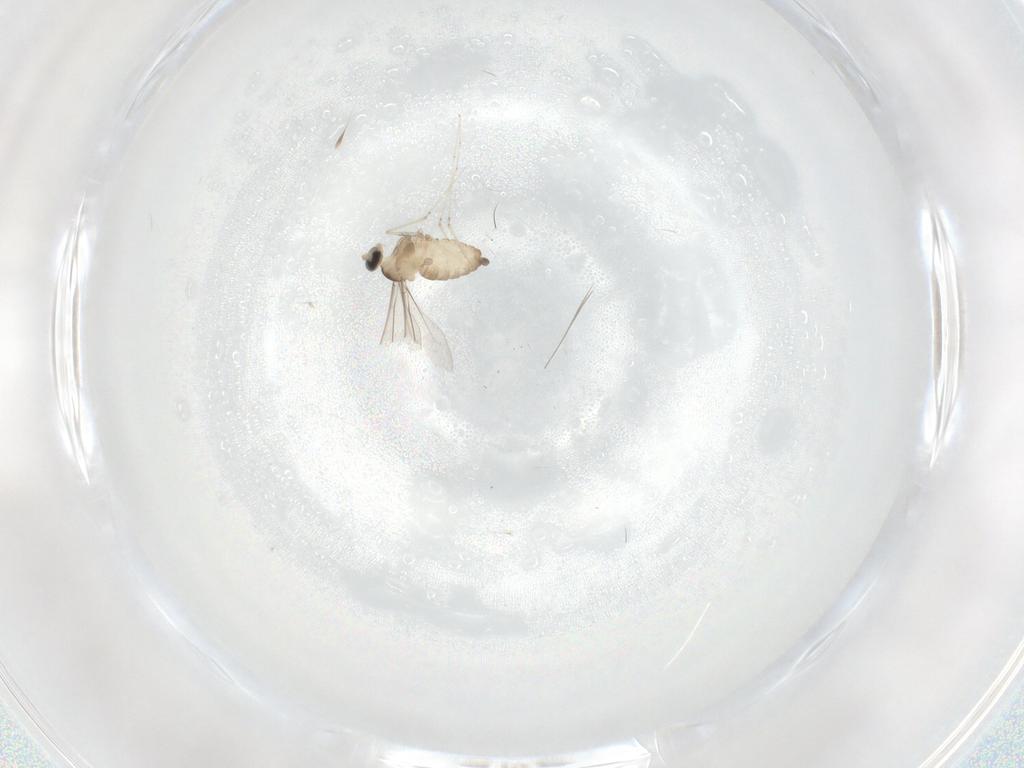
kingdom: Animalia
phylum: Arthropoda
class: Insecta
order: Diptera
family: Cecidomyiidae
